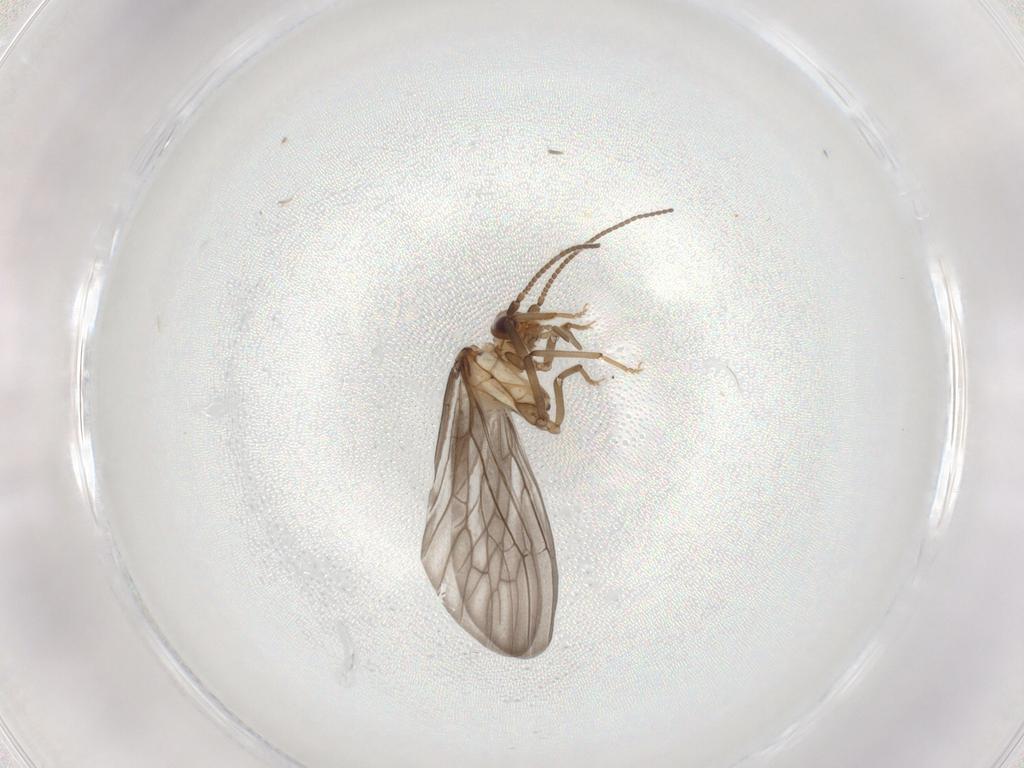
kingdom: Animalia
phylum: Arthropoda
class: Insecta
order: Neuroptera
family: Coniopterygidae
